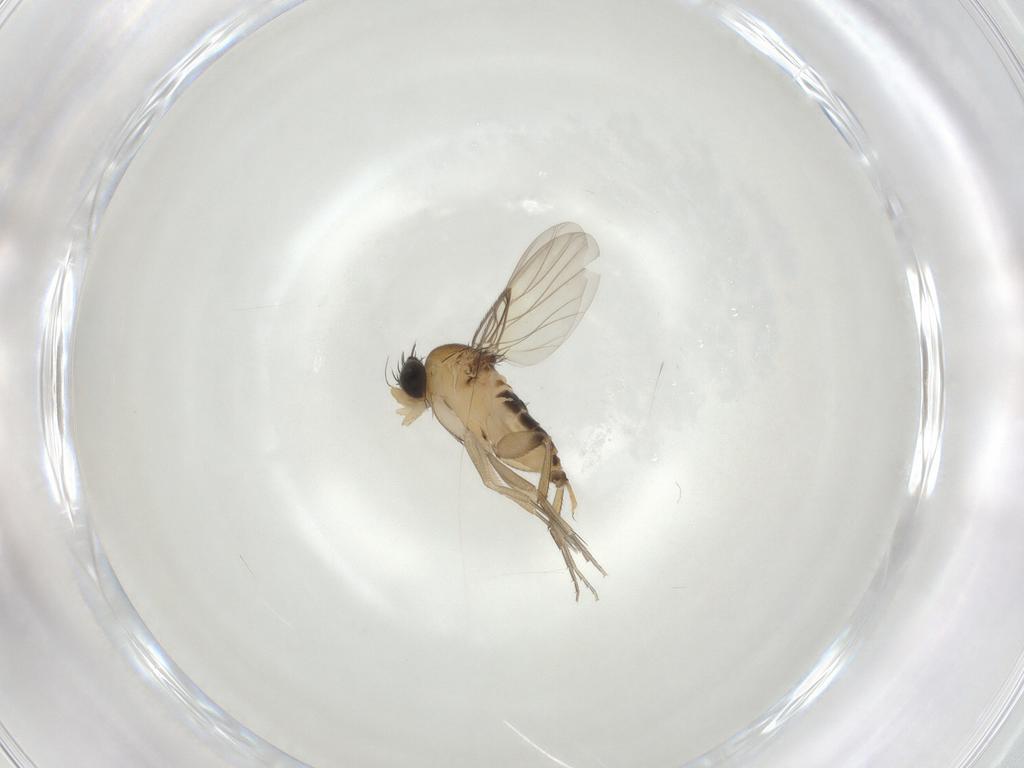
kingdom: Animalia
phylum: Arthropoda
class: Insecta
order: Diptera
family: Phoridae
